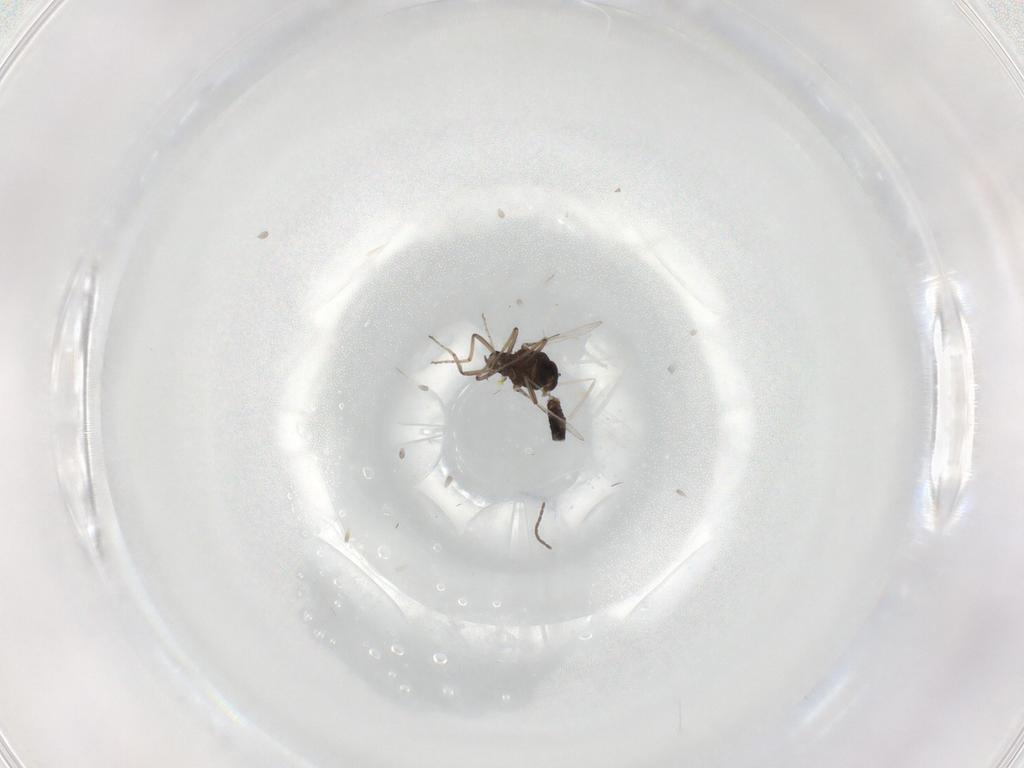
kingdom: Animalia
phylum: Arthropoda
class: Insecta
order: Diptera
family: Ceratopogonidae
